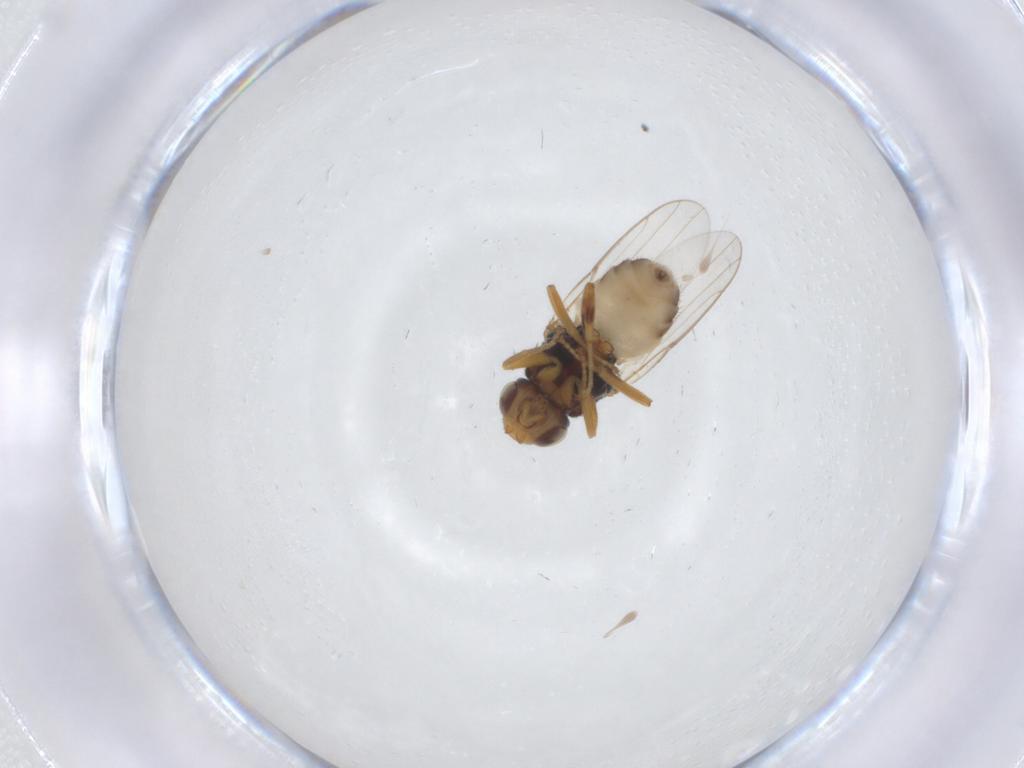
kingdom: Animalia
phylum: Arthropoda
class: Insecta
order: Diptera
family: Chloropidae
